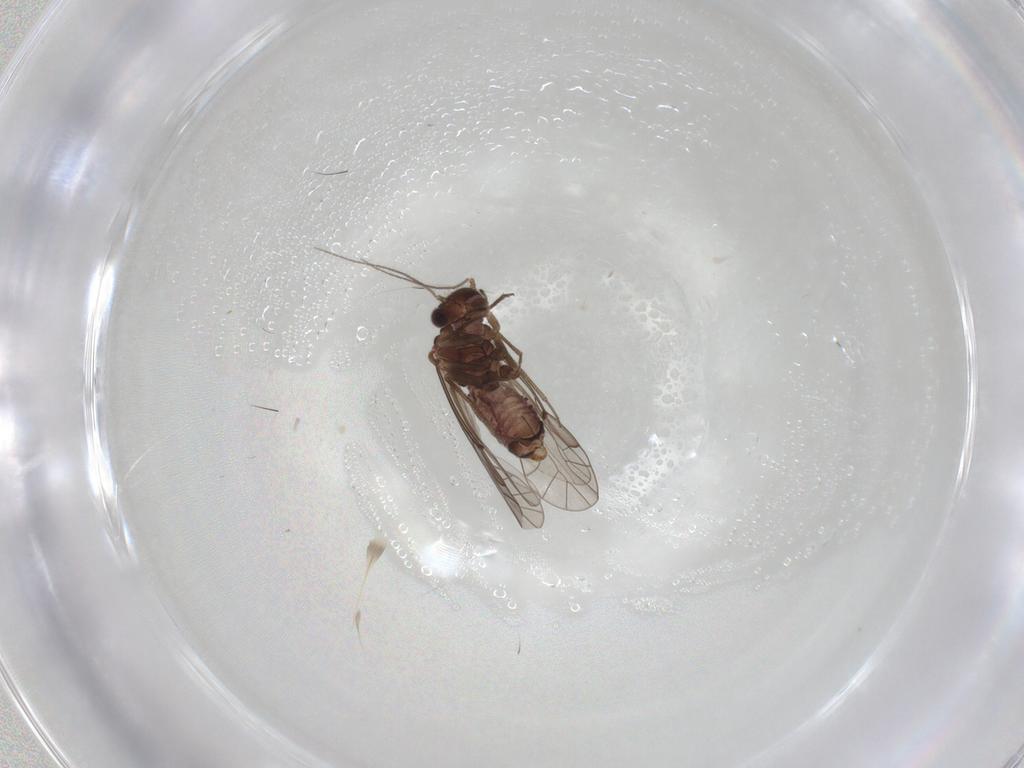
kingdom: Animalia
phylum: Arthropoda
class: Insecta
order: Psocodea
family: Lachesillidae
